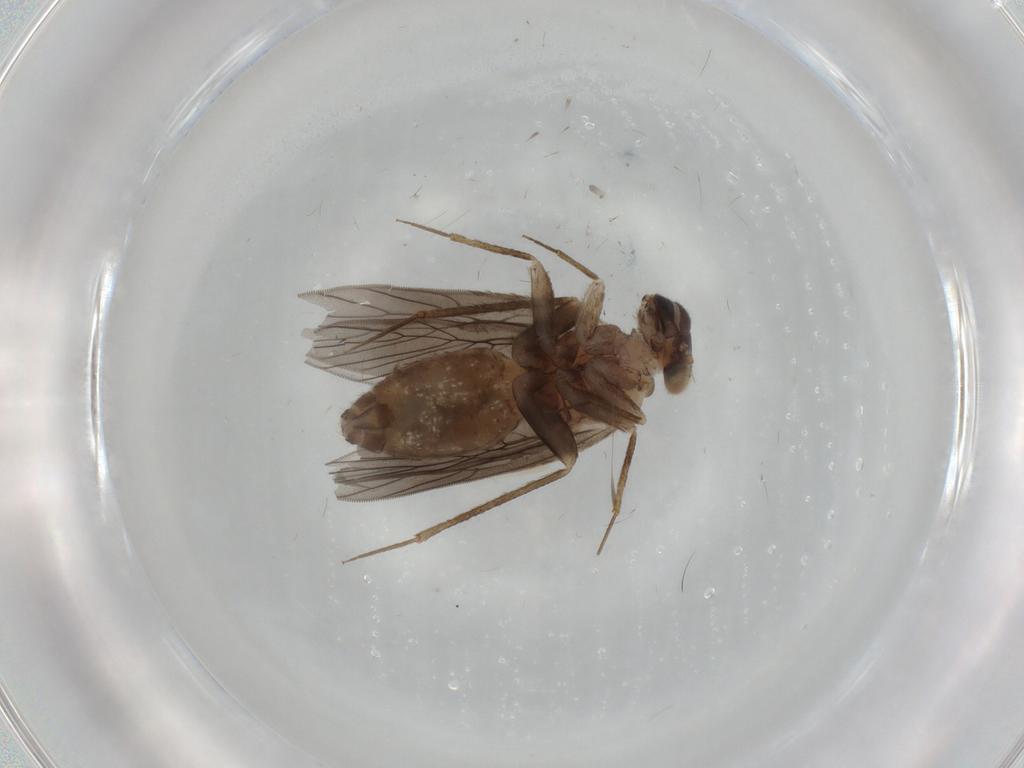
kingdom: Animalia
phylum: Arthropoda
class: Insecta
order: Psocodea
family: Lepidopsocidae
